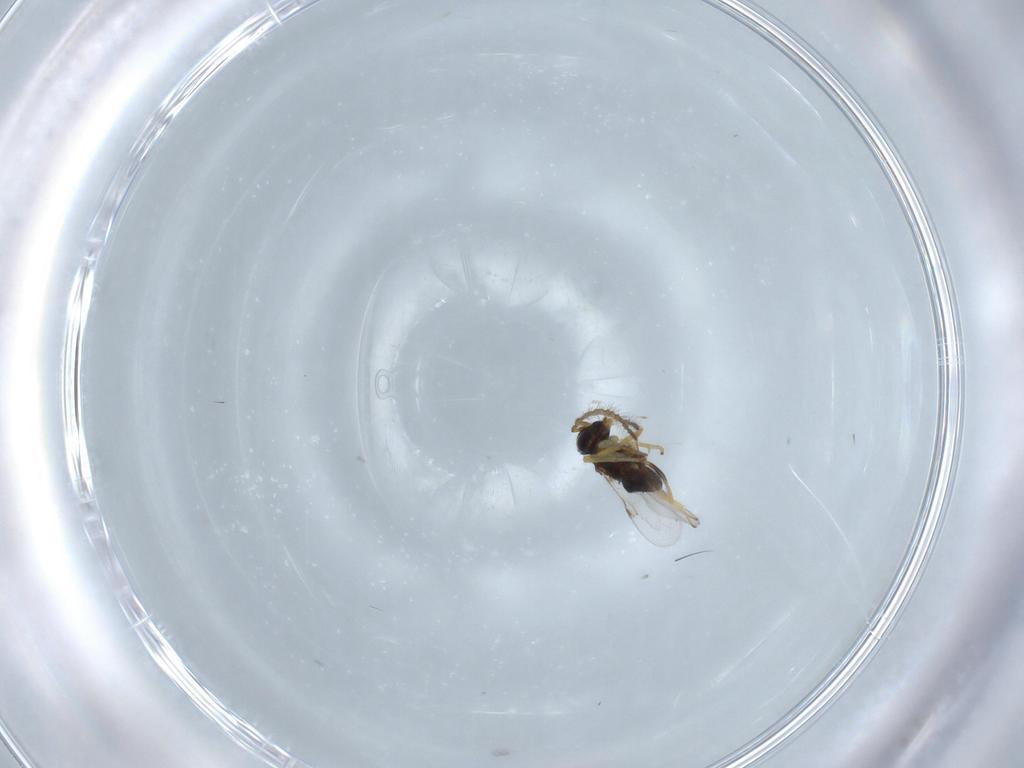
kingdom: Animalia
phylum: Arthropoda
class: Insecta
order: Hymenoptera
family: Encyrtidae
